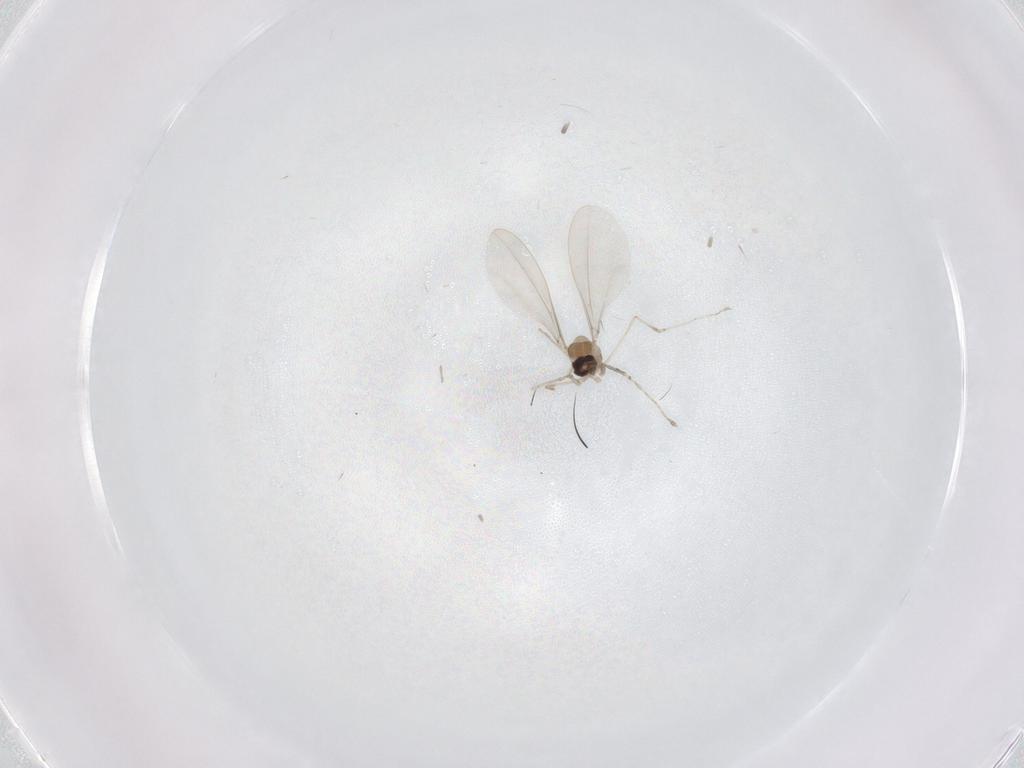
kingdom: Animalia
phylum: Arthropoda
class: Insecta
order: Diptera
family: Cecidomyiidae
